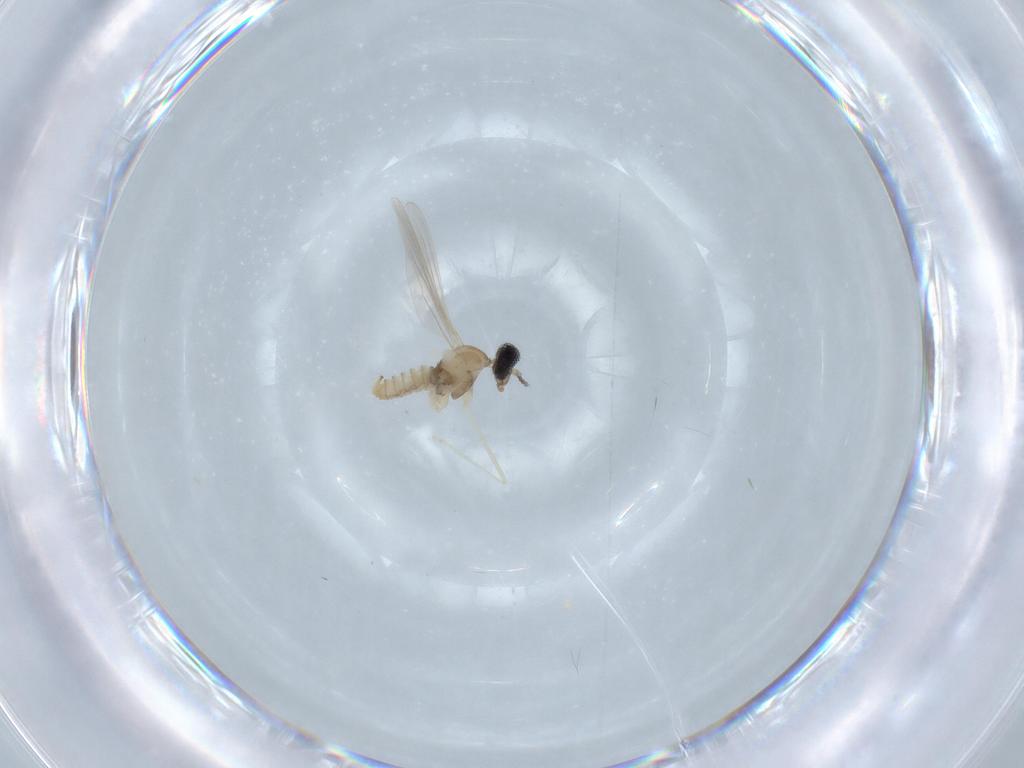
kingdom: Animalia
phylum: Arthropoda
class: Insecta
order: Diptera
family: Cecidomyiidae
